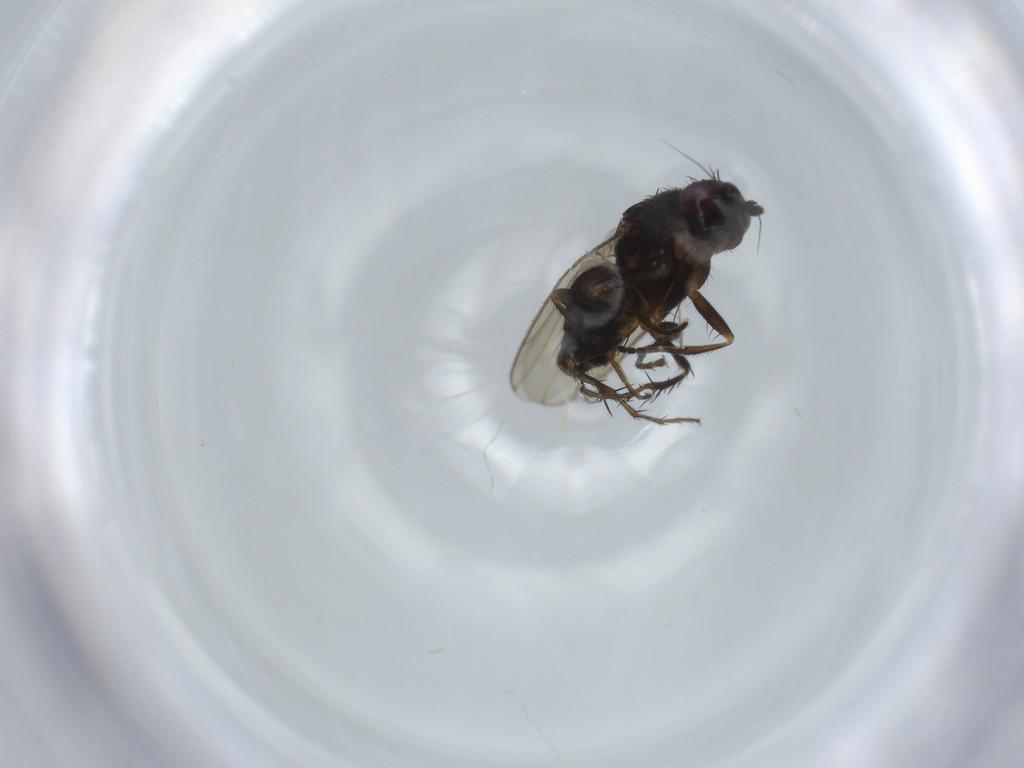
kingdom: Animalia
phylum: Arthropoda
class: Insecta
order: Diptera
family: Sphaeroceridae
